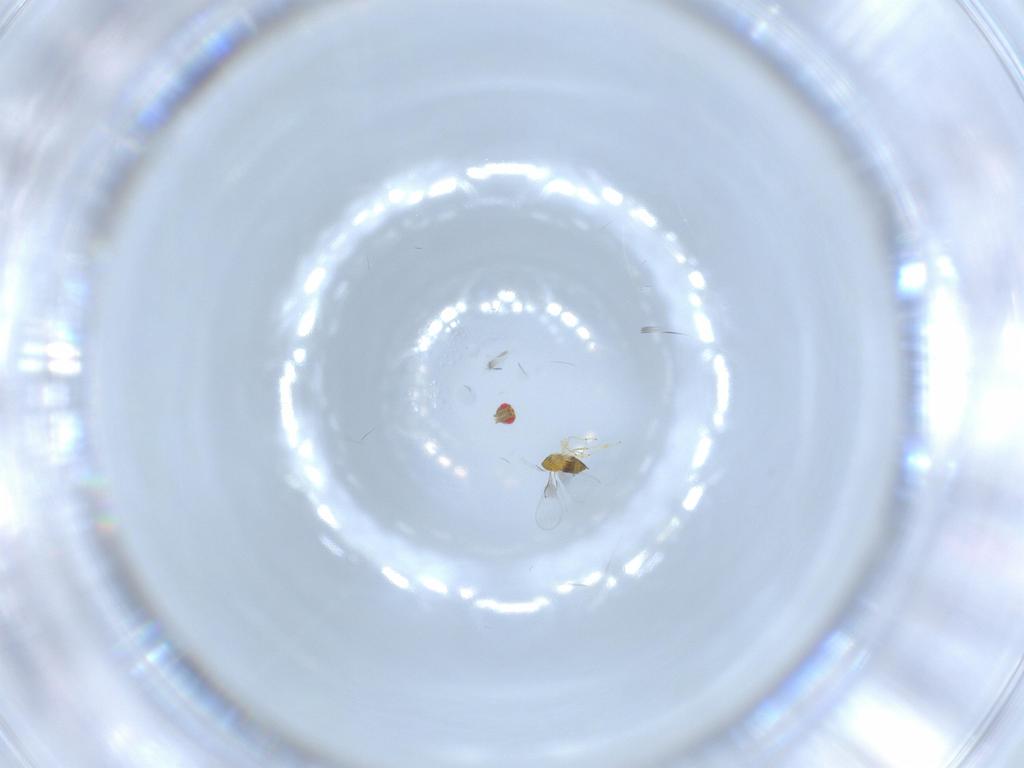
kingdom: Animalia
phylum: Arthropoda
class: Insecta
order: Hymenoptera
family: Trichogrammatidae
